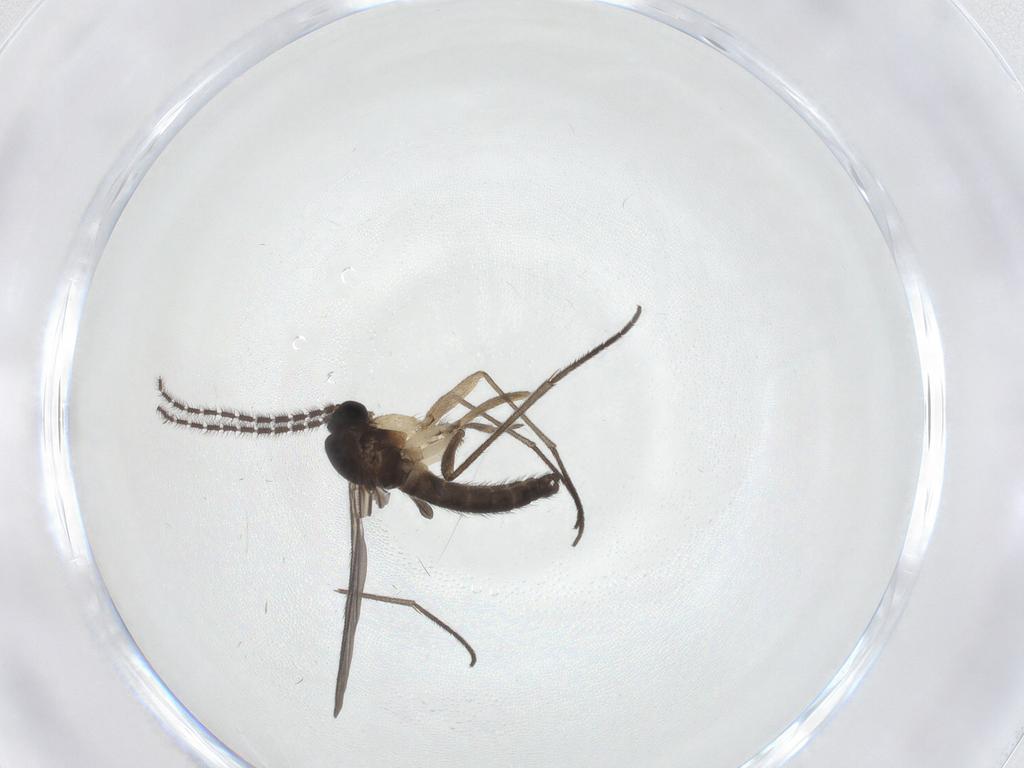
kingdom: Animalia
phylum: Arthropoda
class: Insecta
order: Diptera
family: Sciaridae
